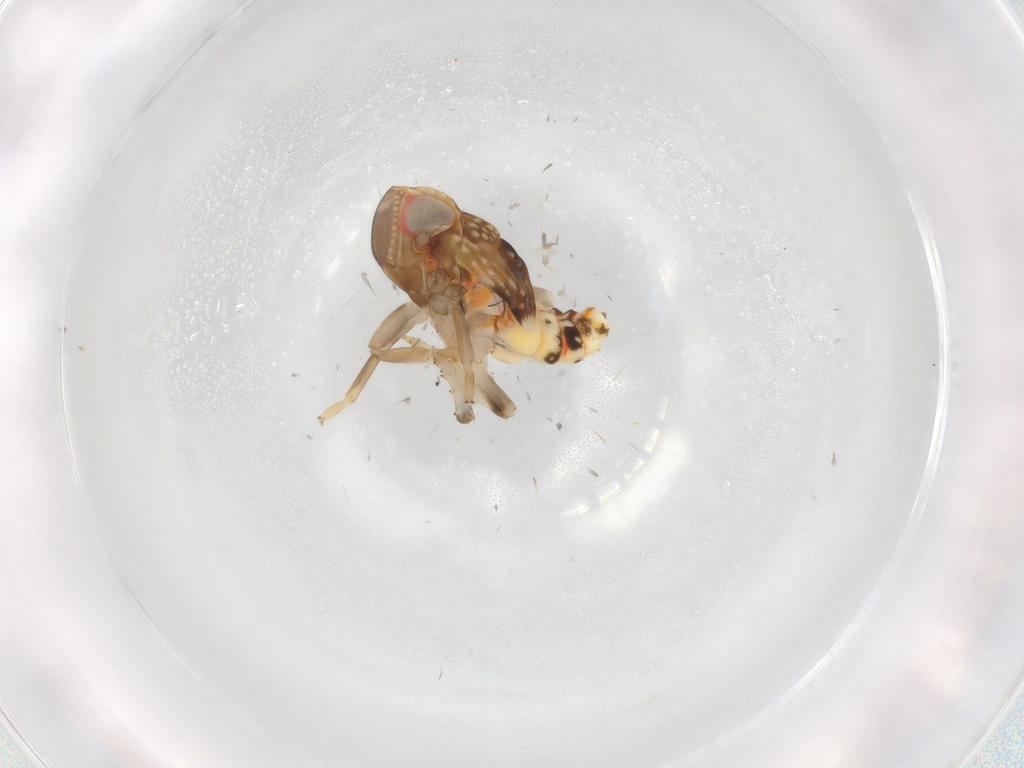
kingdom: Animalia
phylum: Arthropoda
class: Insecta
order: Hemiptera
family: Nogodinidae
